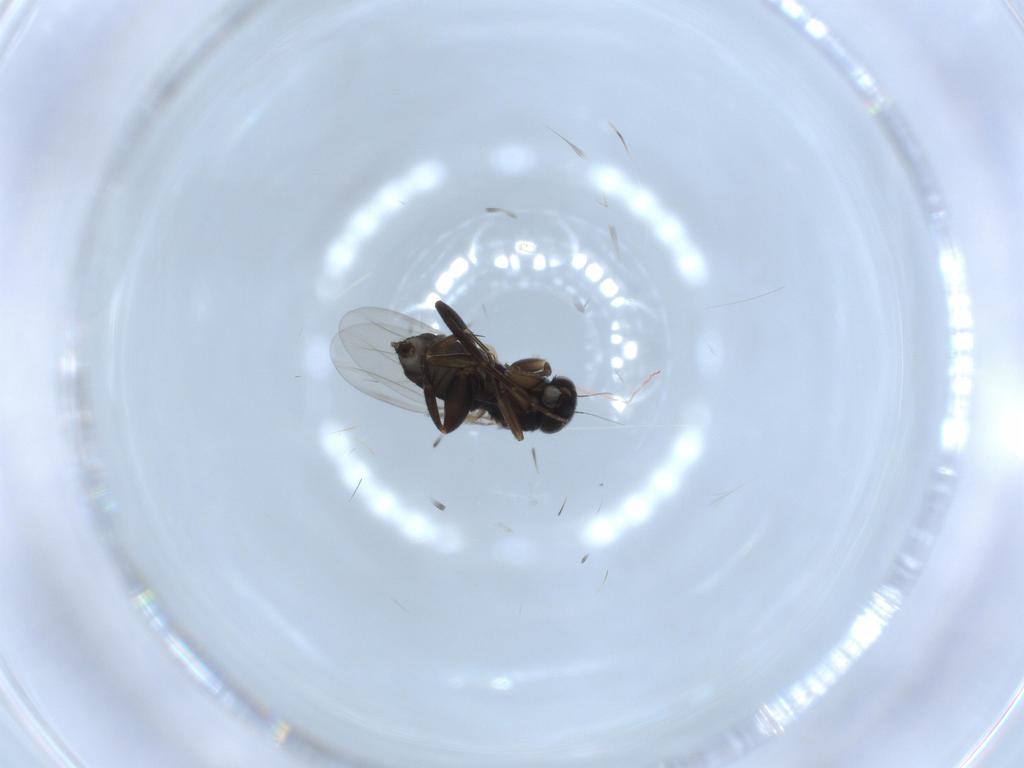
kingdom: Animalia
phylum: Arthropoda
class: Insecta
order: Diptera
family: Phoridae
